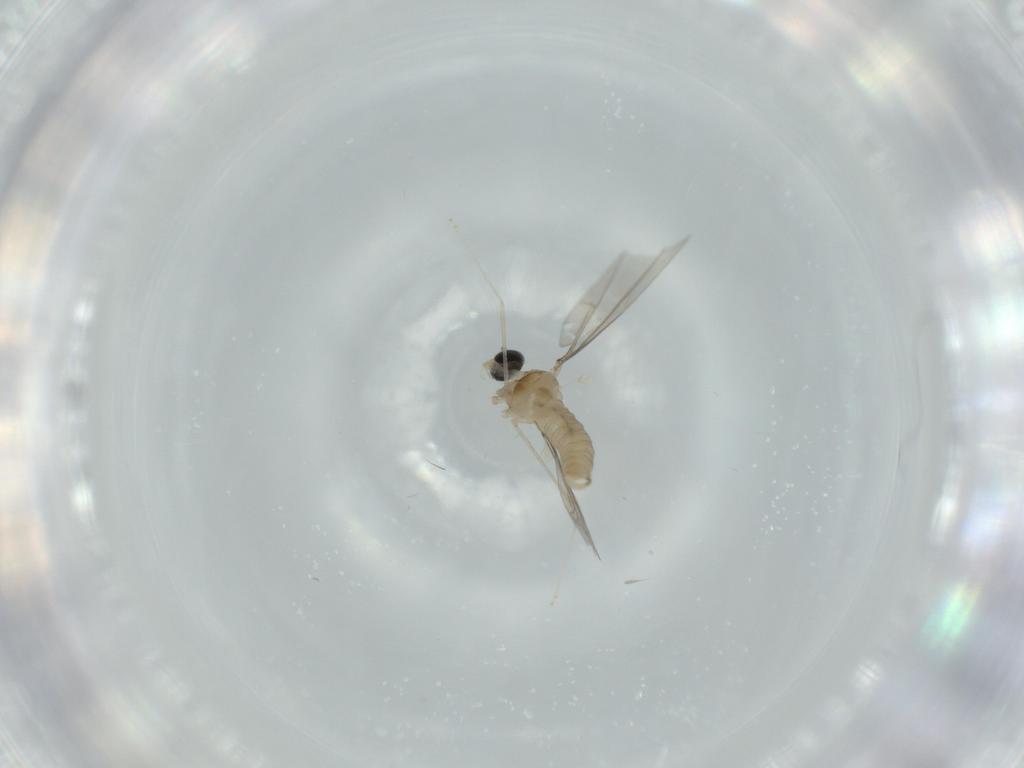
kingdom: Animalia
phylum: Arthropoda
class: Insecta
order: Diptera
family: Cecidomyiidae
